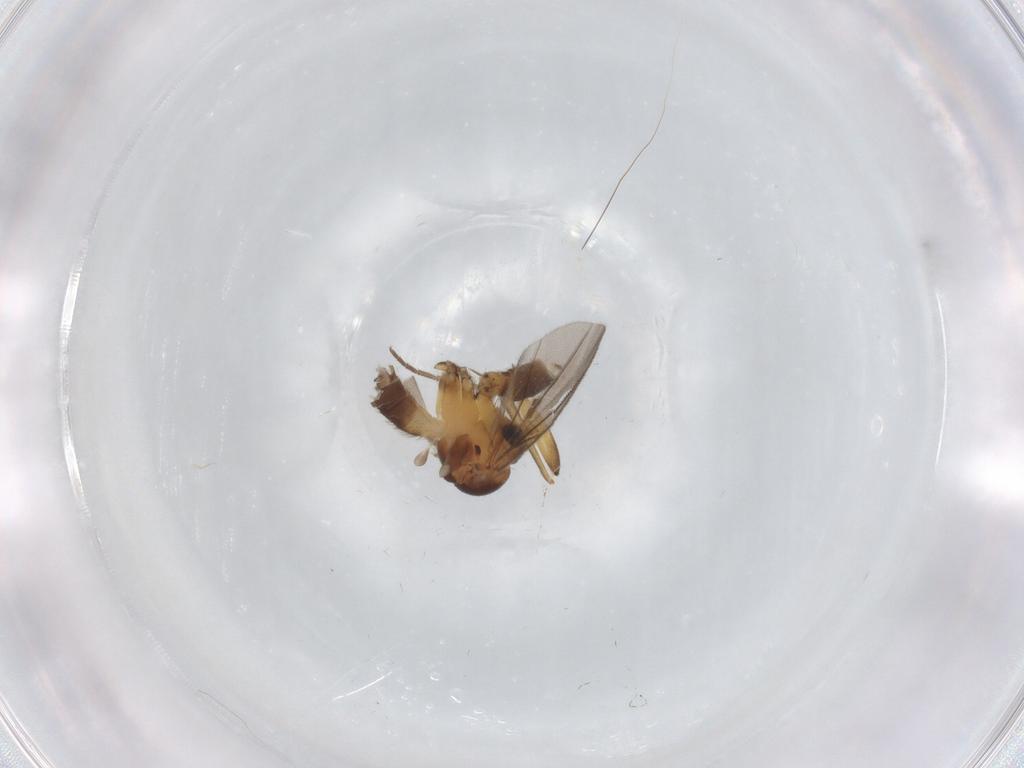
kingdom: Animalia
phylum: Arthropoda
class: Insecta
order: Diptera
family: Mycetophilidae
